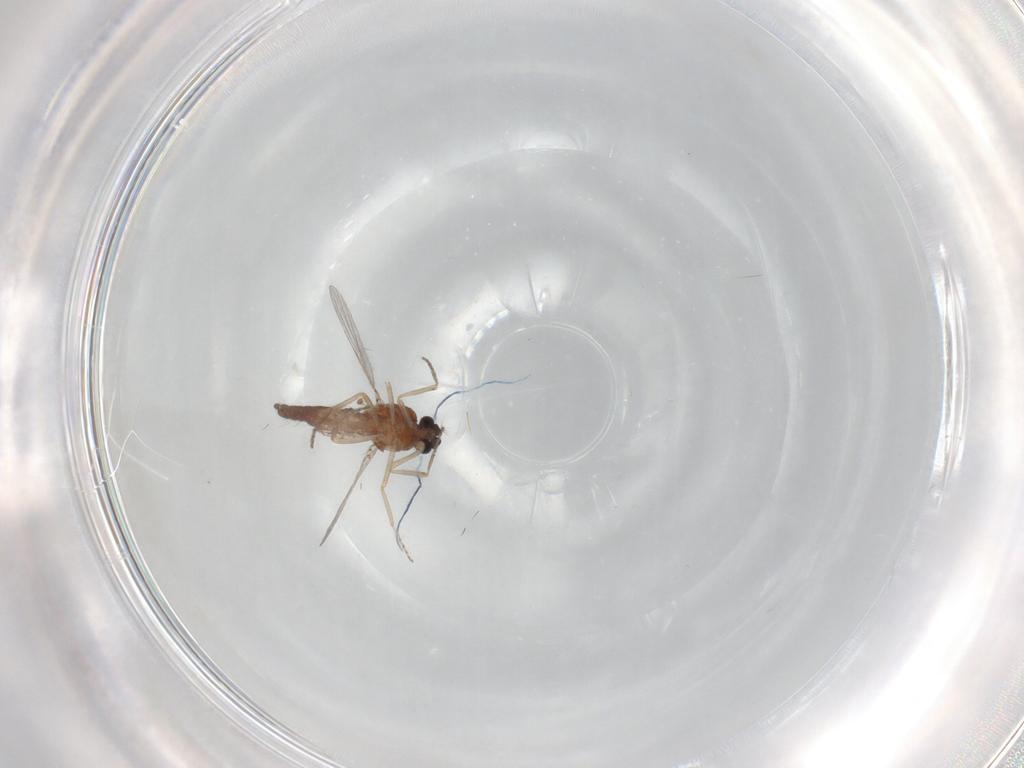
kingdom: Animalia
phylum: Arthropoda
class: Insecta
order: Diptera
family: Ceratopogonidae
